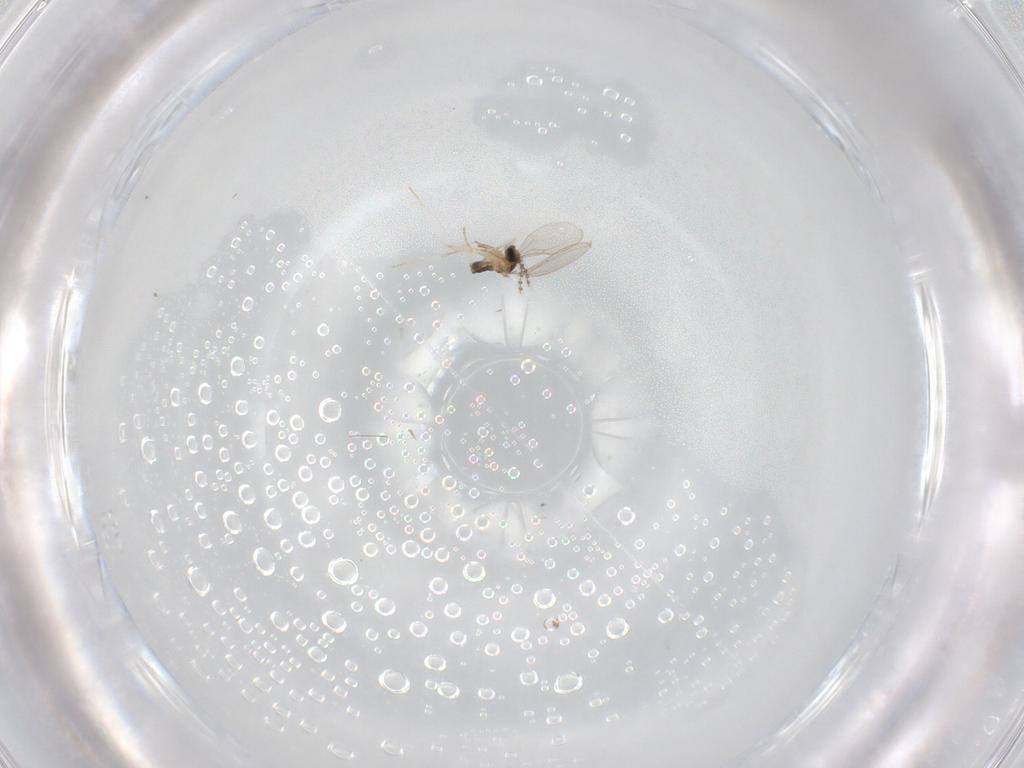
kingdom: Animalia
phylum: Arthropoda
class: Insecta
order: Diptera
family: Cecidomyiidae
